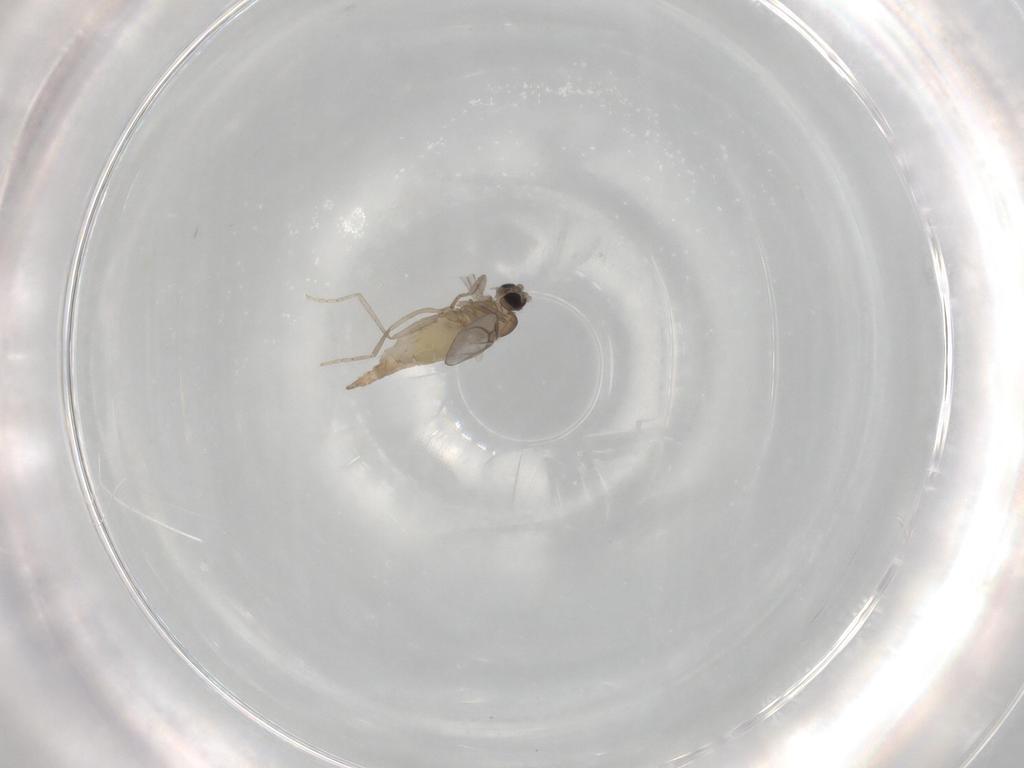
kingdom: Animalia
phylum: Arthropoda
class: Insecta
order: Diptera
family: Cecidomyiidae
